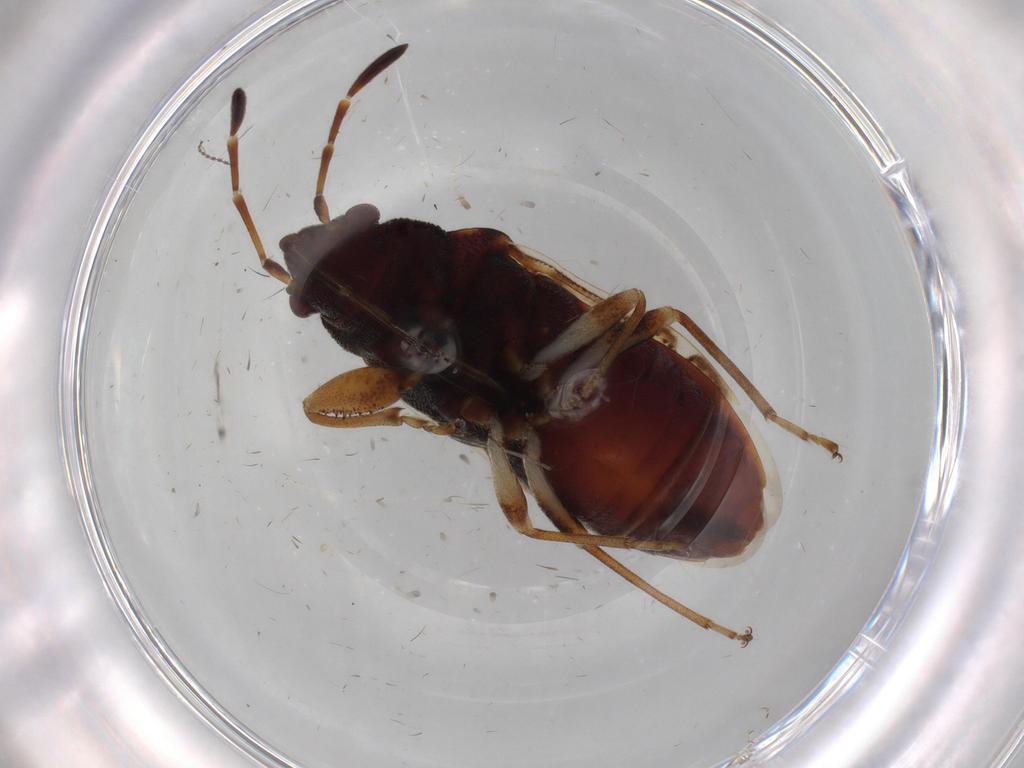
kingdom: Animalia
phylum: Arthropoda
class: Insecta
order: Hemiptera
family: Rhyparochromidae
